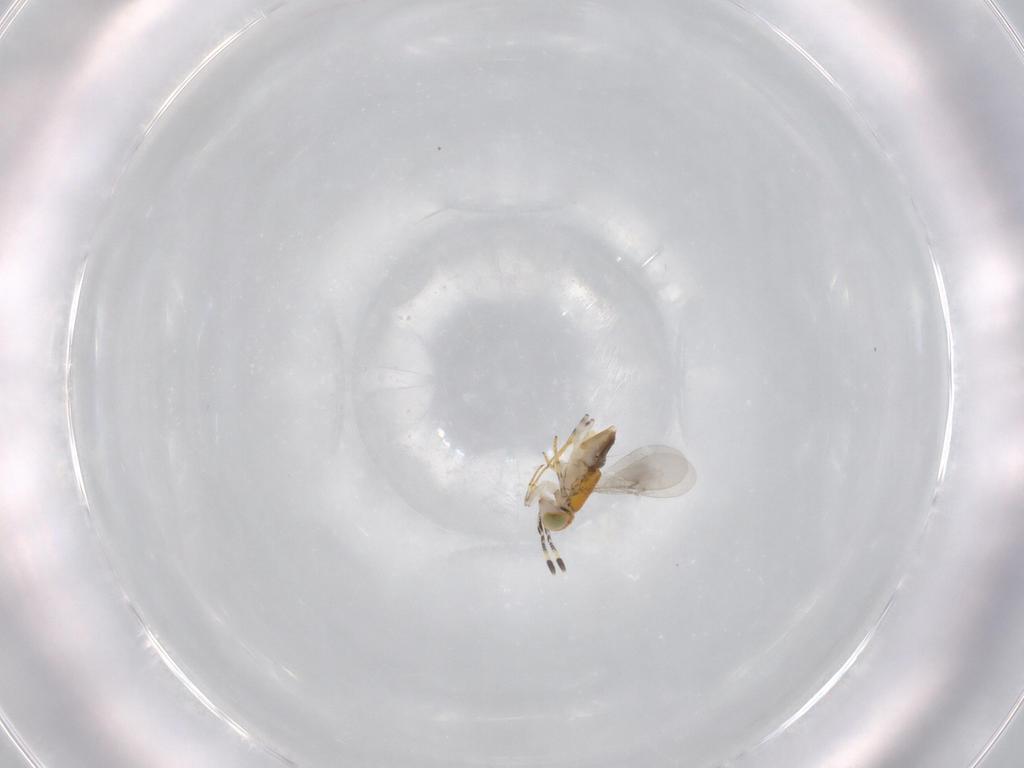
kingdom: Animalia
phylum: Arthropoda
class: Insecta
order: Hymenoptera
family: Encyrtidae
